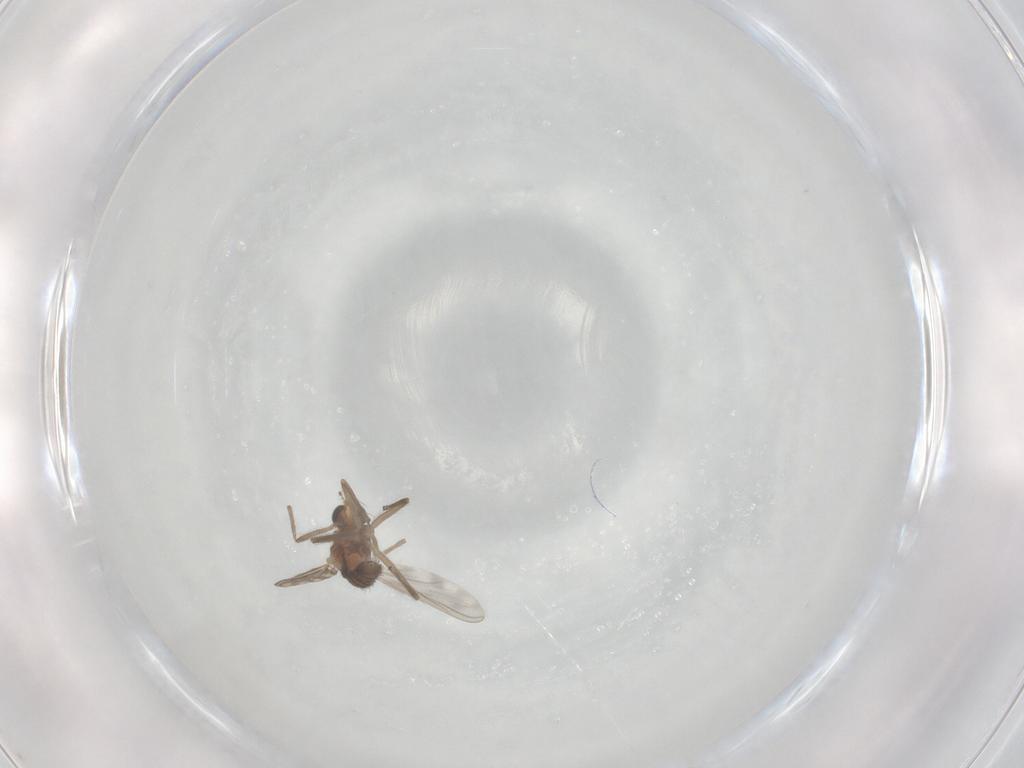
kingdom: Animalia
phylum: Arthropoda
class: Insecta
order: Diptera
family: Chironomidae
